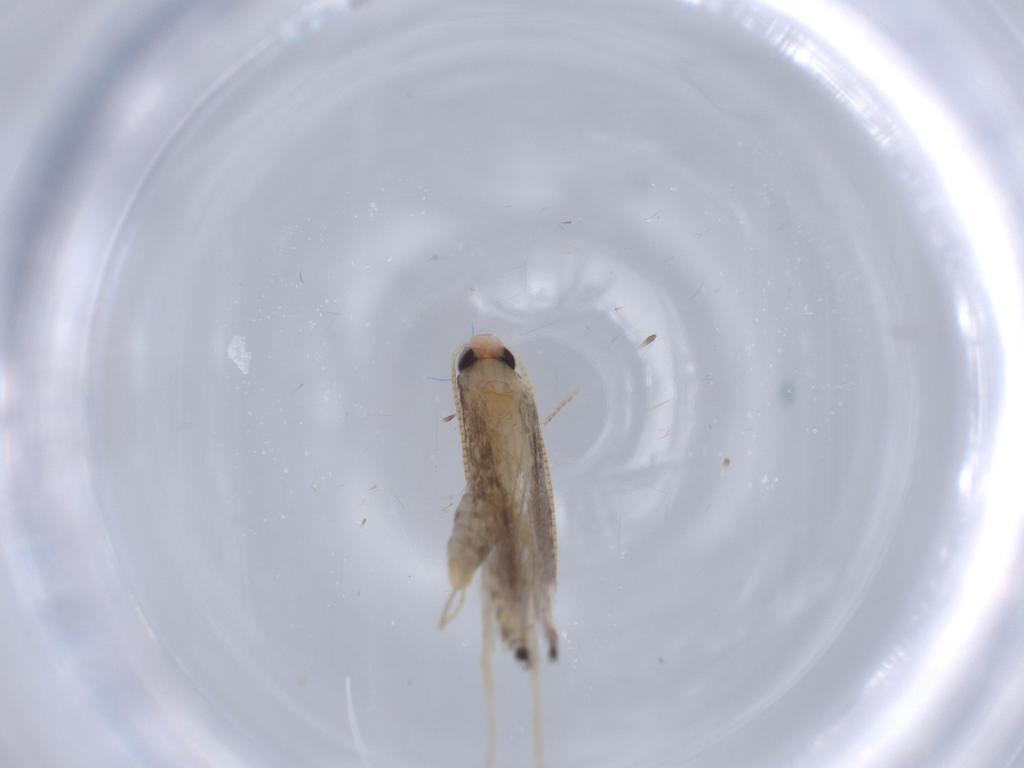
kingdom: Animalia
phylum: Arthropoda
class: Insecta
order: Lepidoptera
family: Gracillariidae
